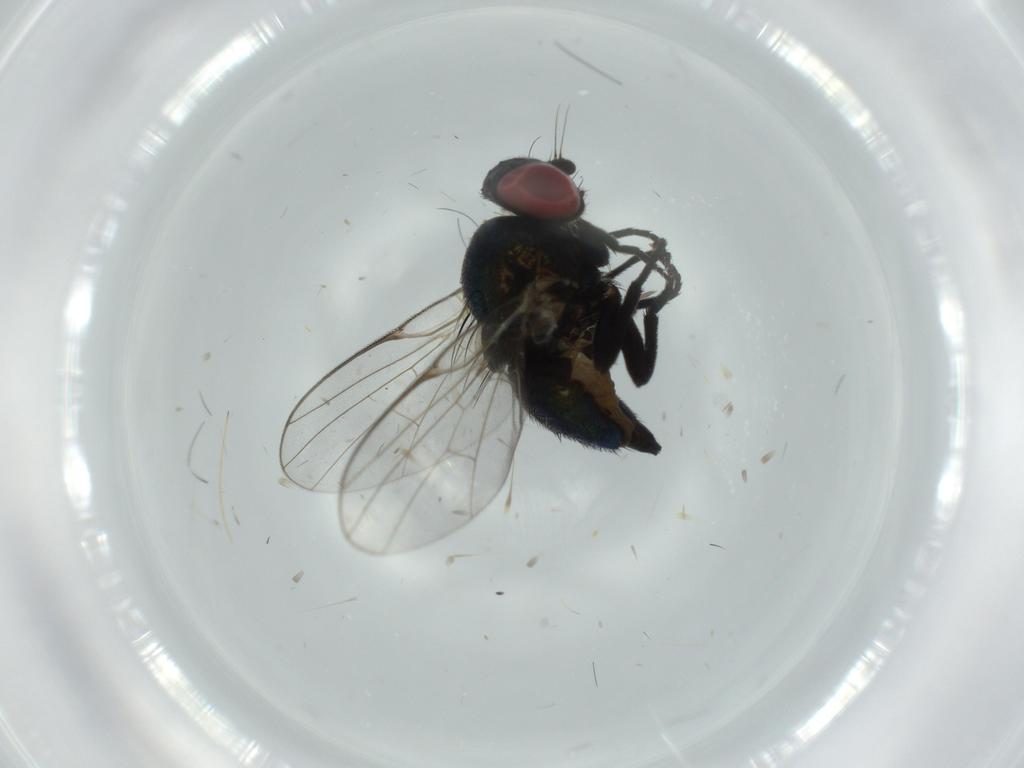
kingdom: Animalia
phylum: Arthropoda
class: Insecta
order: Diptera
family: Agromyzidae
